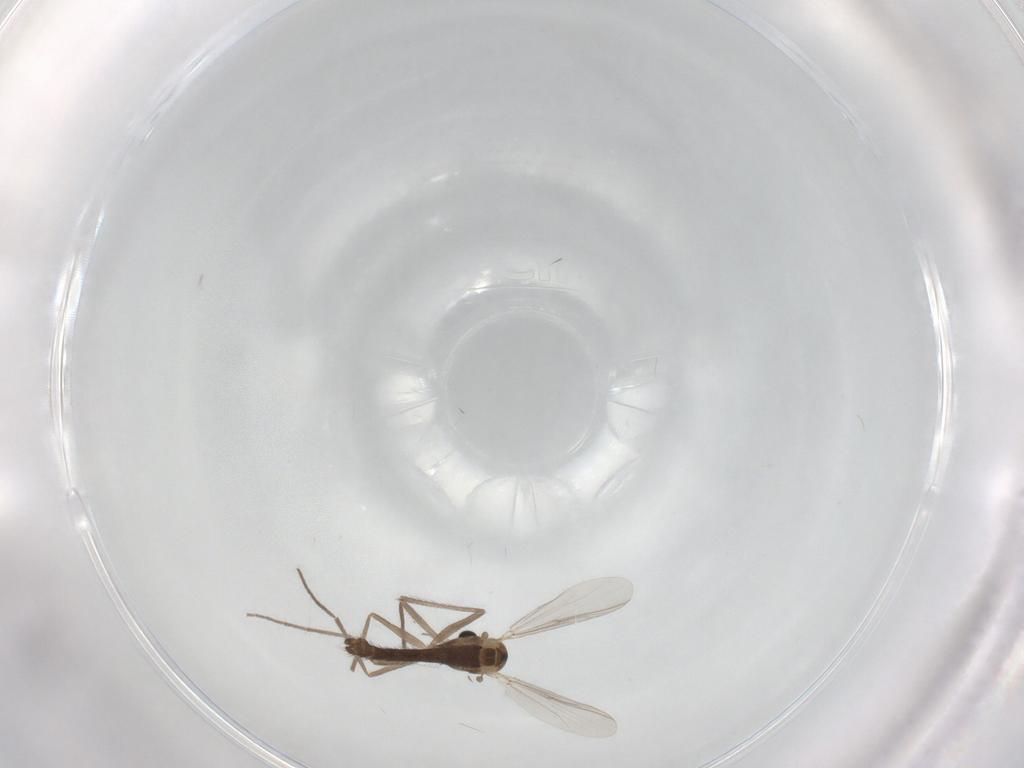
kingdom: Animalia
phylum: Arthropoda
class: Insecta
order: Diptera
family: Chironomidae
